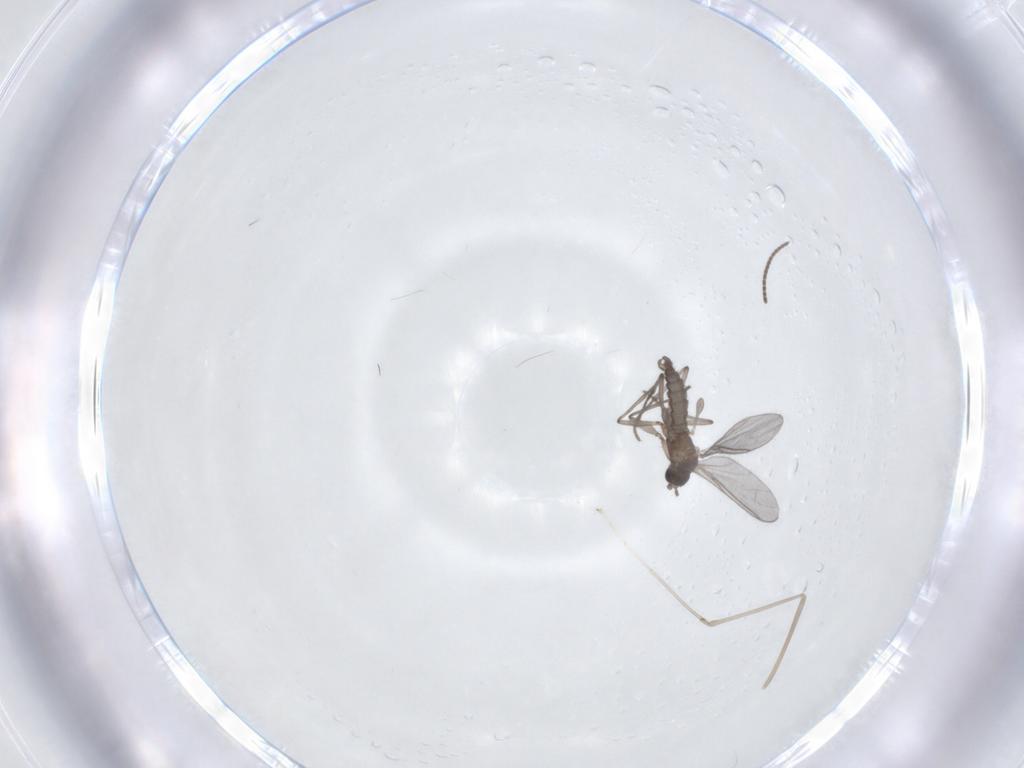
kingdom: Animalia
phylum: Arthropoda
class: Insecta
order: Diptera
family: Cecidomyiidae
